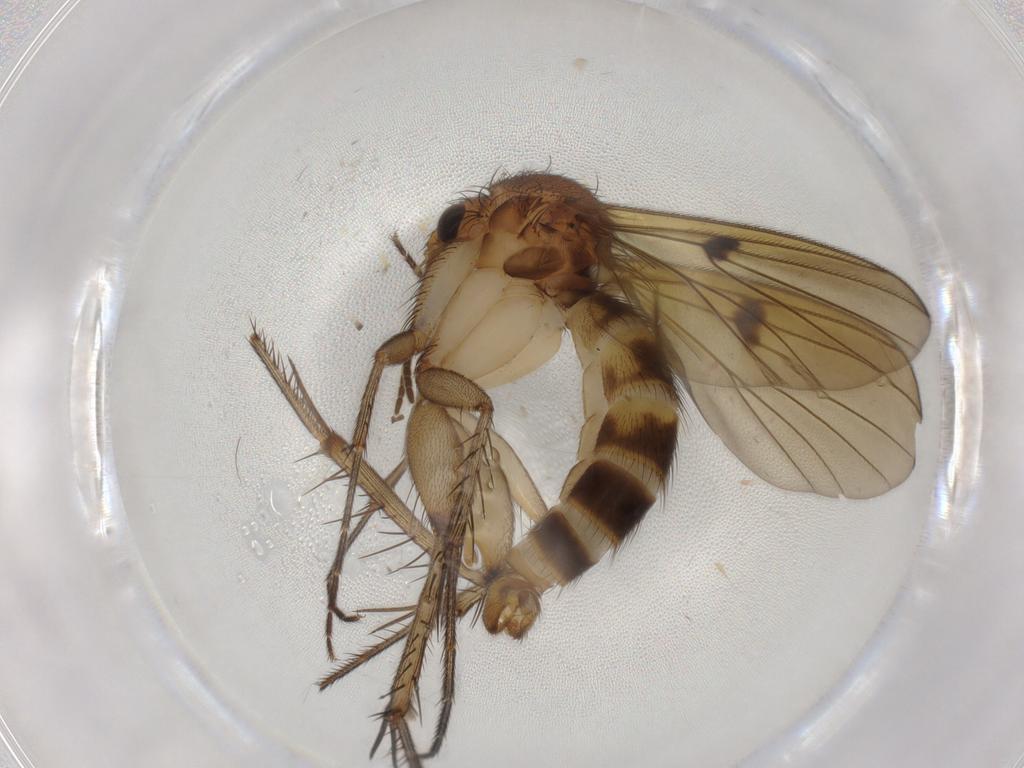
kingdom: Animalia
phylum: Arthropoda
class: Insecta
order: Diptera
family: Sciaridae
